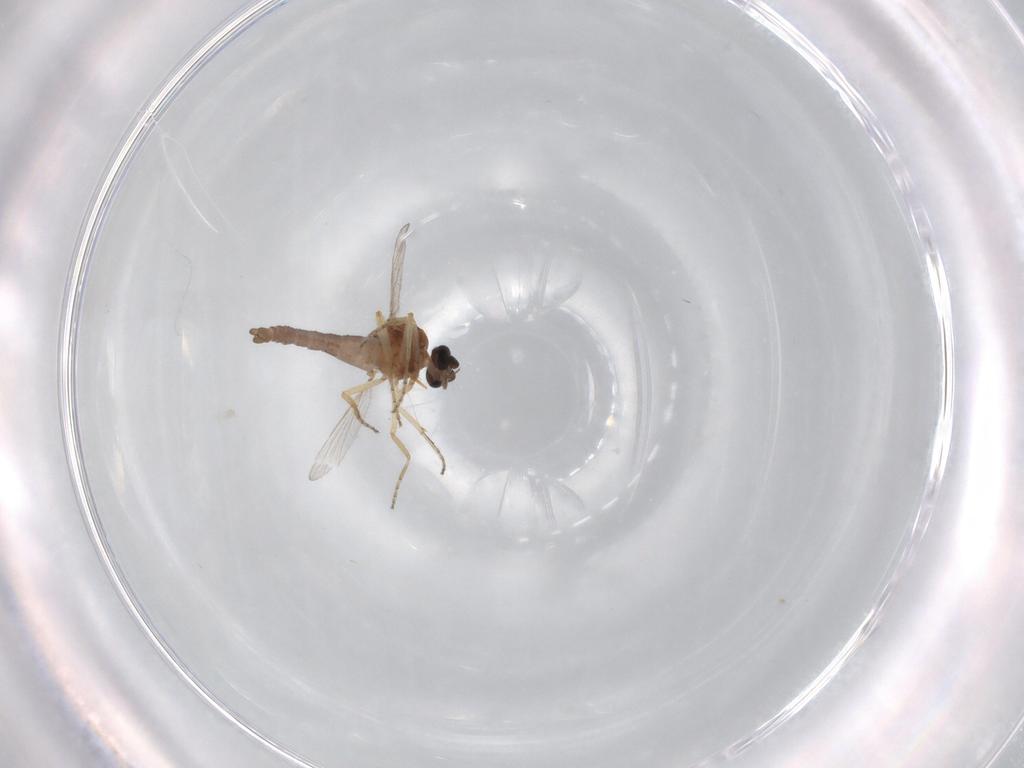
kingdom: Animalia
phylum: Arthropoda
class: Insecta
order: Diptera
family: Ceratopogonidae
